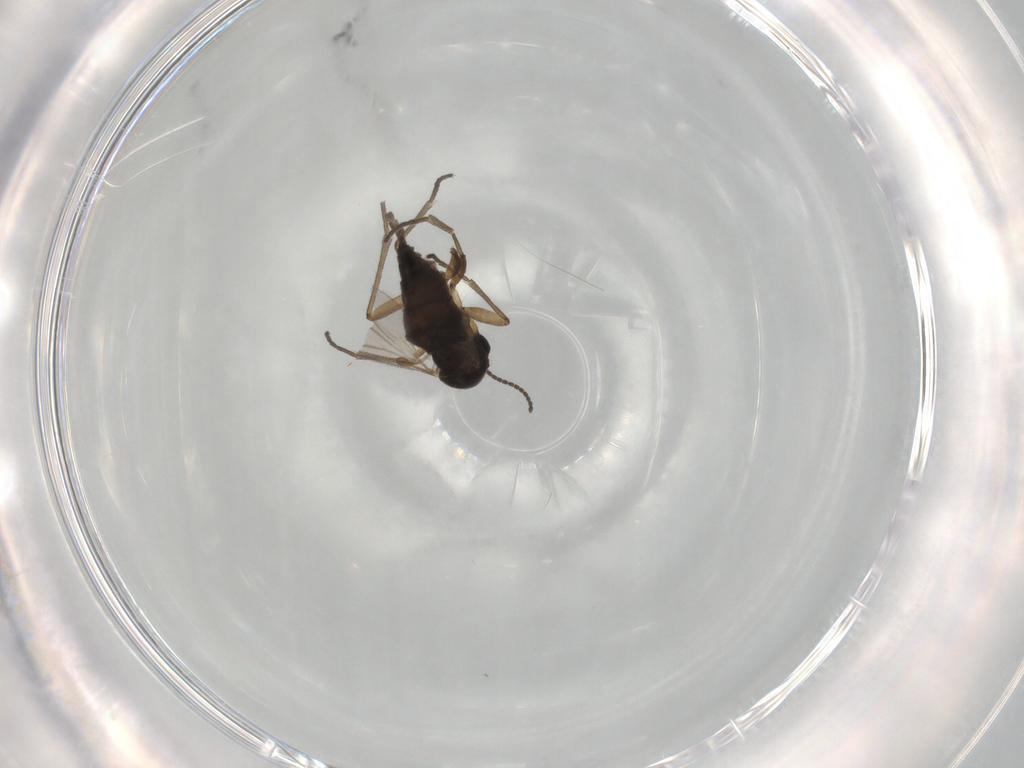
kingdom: Animalia
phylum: Arthropoda
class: Insecta
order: Diptera
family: Sciaridae
